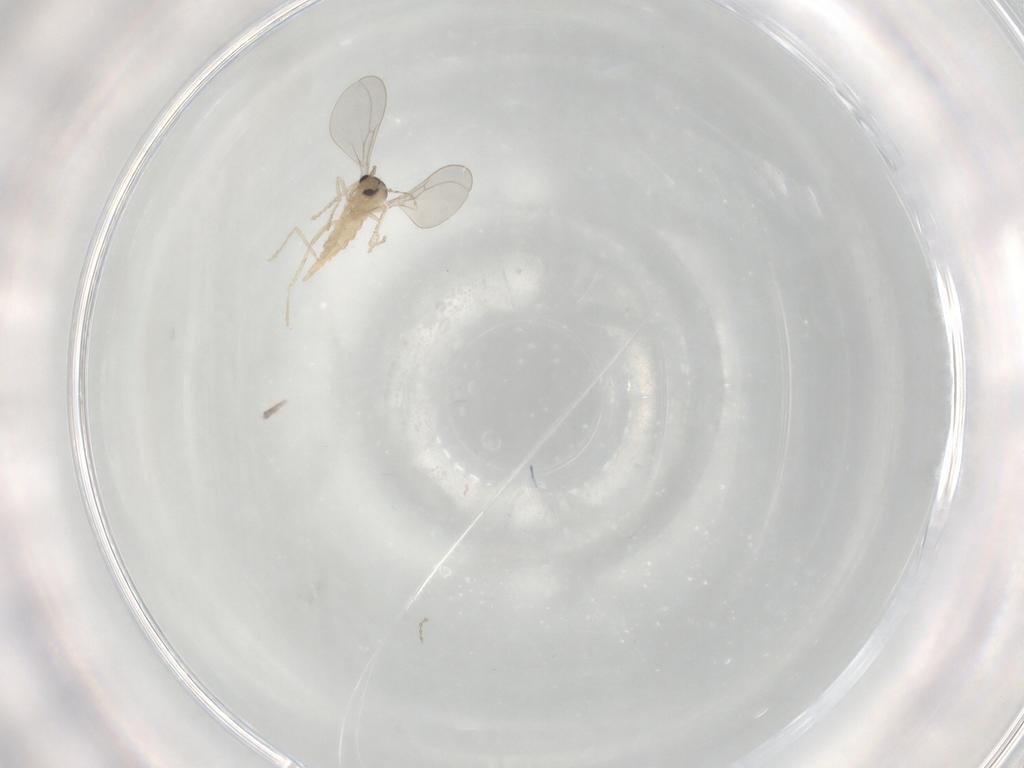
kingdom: Animalia
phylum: Arthropoda
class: Insecta
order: Diptera
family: Cecidomyiidae
